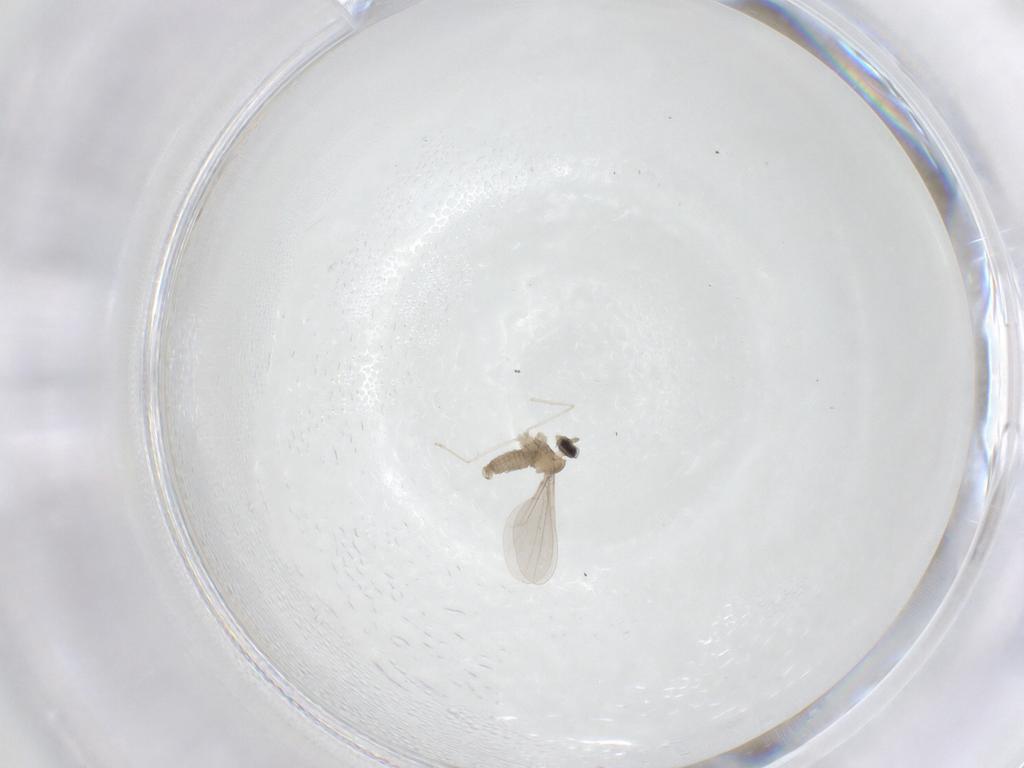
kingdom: Animalia
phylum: Arthropoda
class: Insecta
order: Diptera
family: Cecidomyiidae
